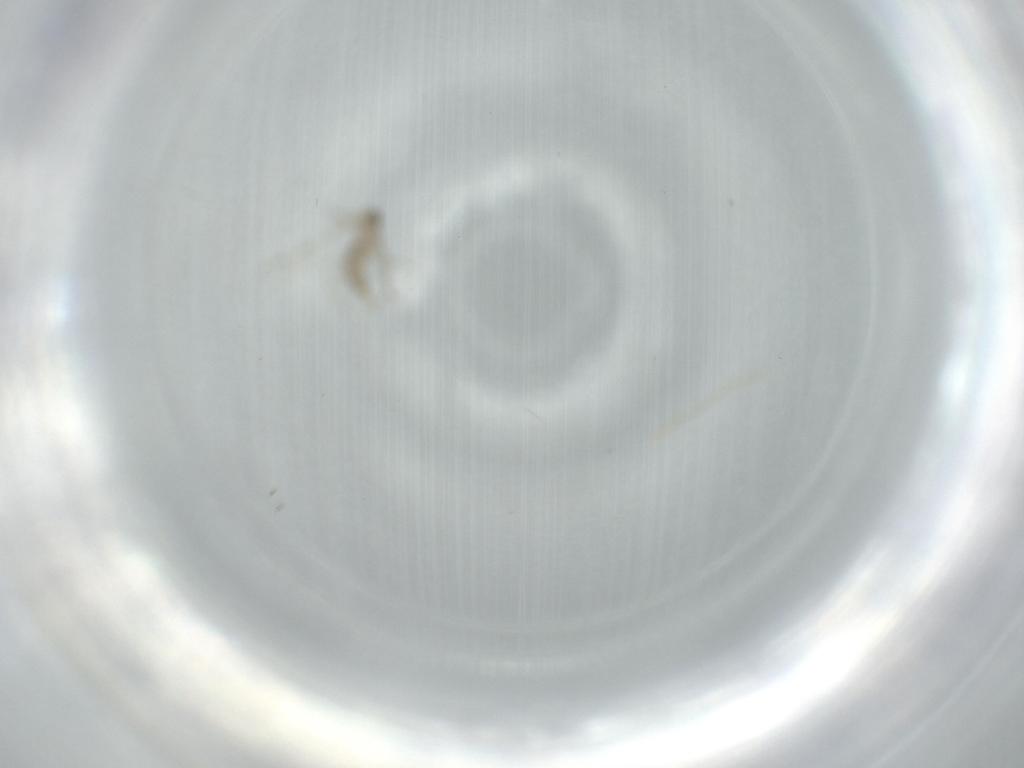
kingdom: Animalia
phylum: Arthropoda
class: Insecta
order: Diptera
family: Cecidomyiidae
